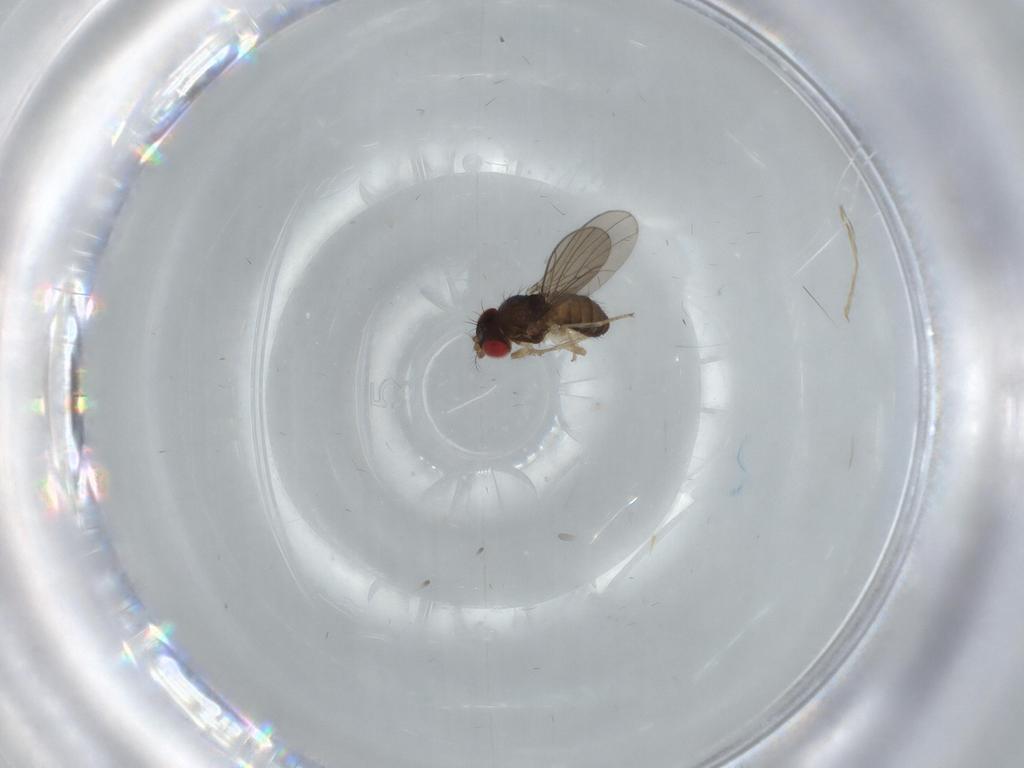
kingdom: Animalia
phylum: Arthropoda
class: Insecta
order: Diptera
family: Drosophilidae
